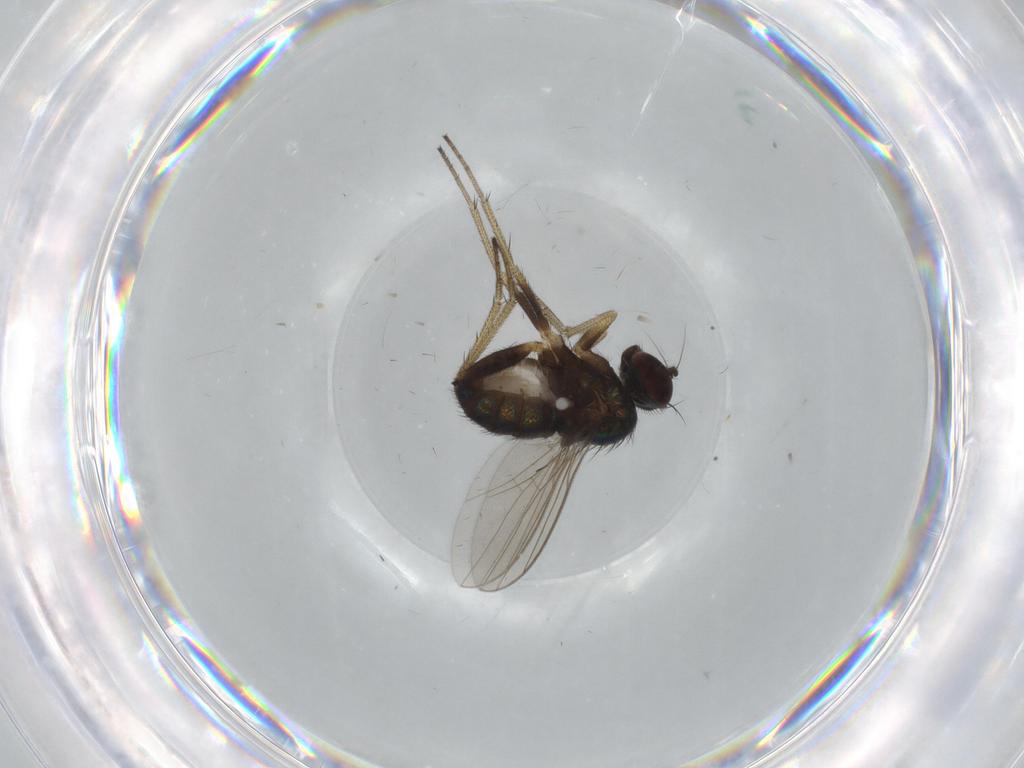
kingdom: Animalia
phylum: Arthropoda
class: Insecta
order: Diptera
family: Dolichopodidae
